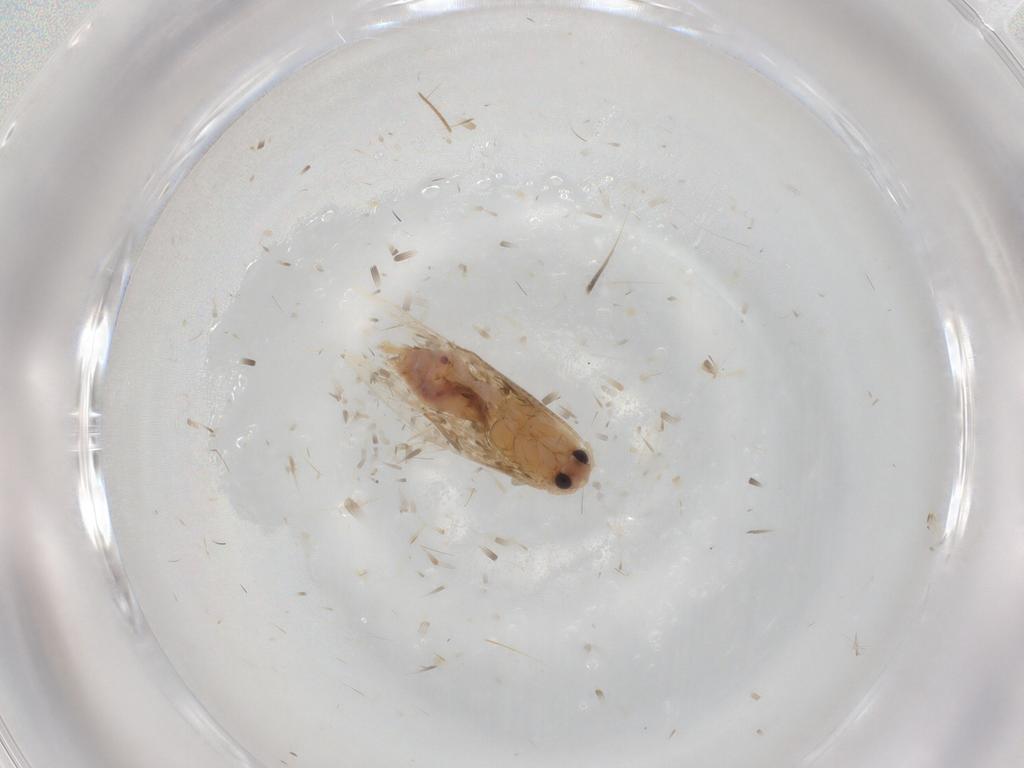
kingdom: Animalia
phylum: Arthropoda
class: Insecta
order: Lepidoptera
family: Bucculatricidae
